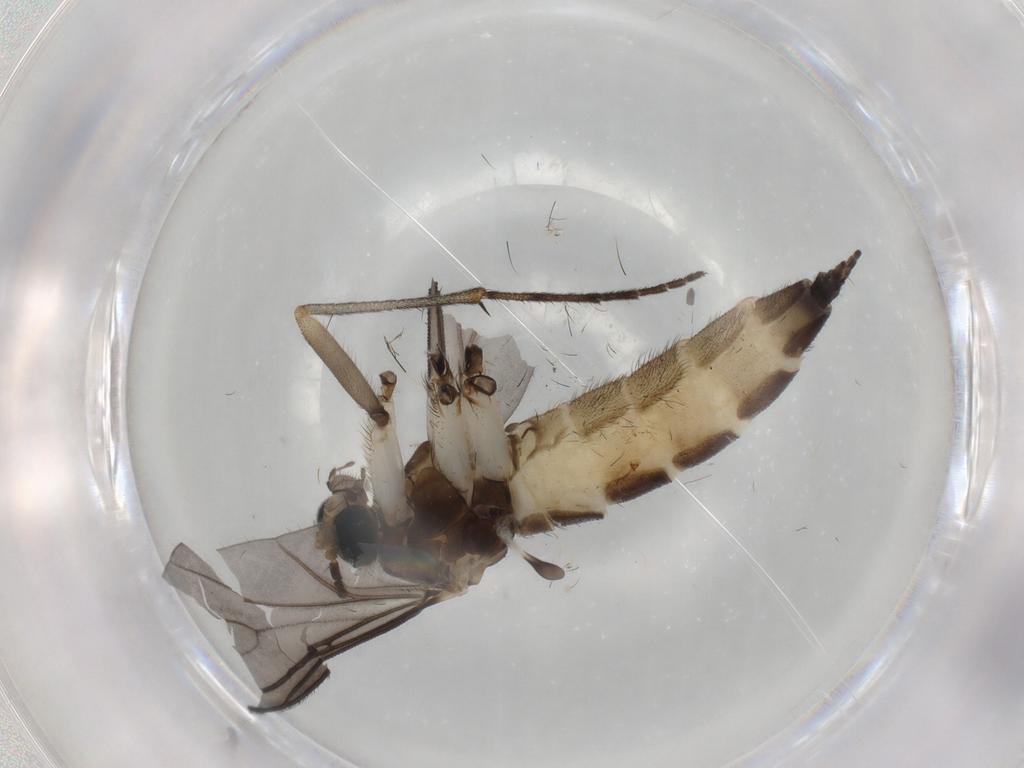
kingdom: Animalia
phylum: Arthropoda
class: Insecta
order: Diptera
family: Sciaridae
